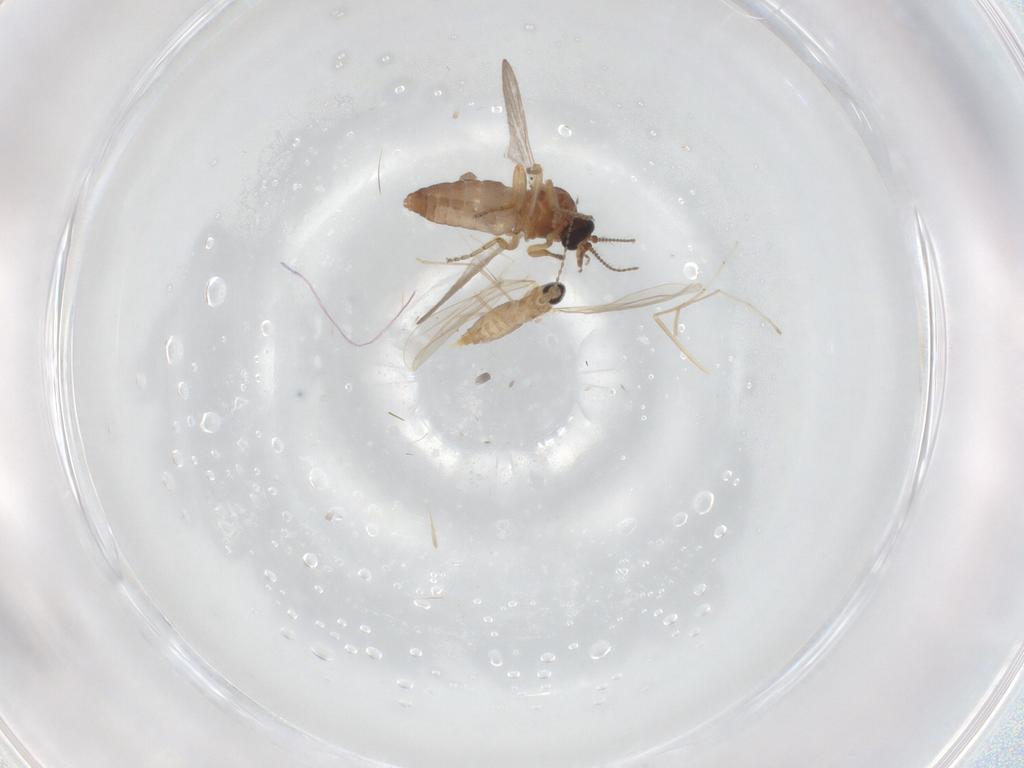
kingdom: Animalia
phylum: Arthropoda
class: Insecta
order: Diptera
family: Ceratopogonidae
